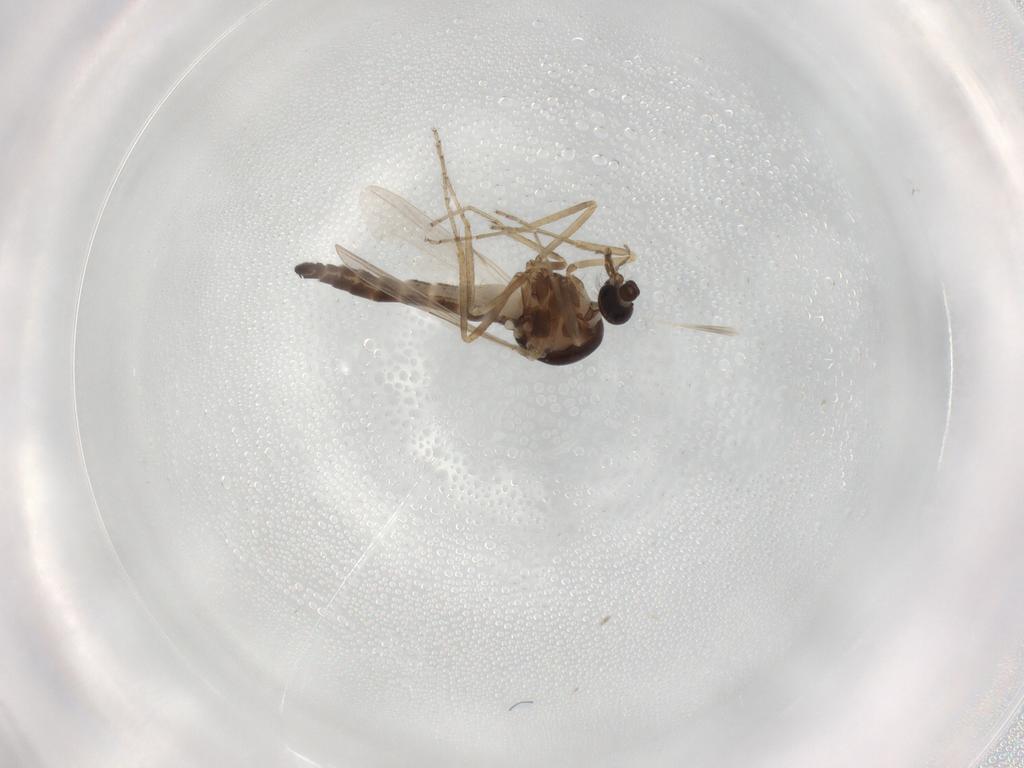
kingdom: Animalia
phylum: Arthropoda
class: Insecta
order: Diptera
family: Ceratopogonidae
